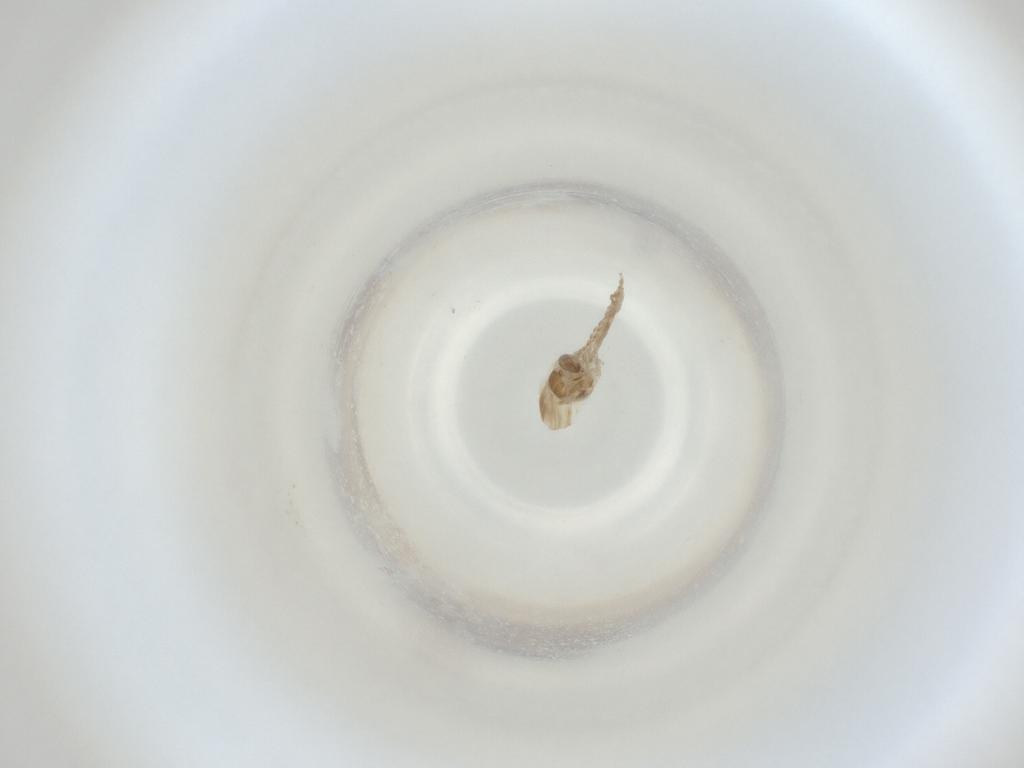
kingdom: Animalia
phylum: Arthropoda
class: Insecta
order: Diptera
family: Cecidomyiidae
